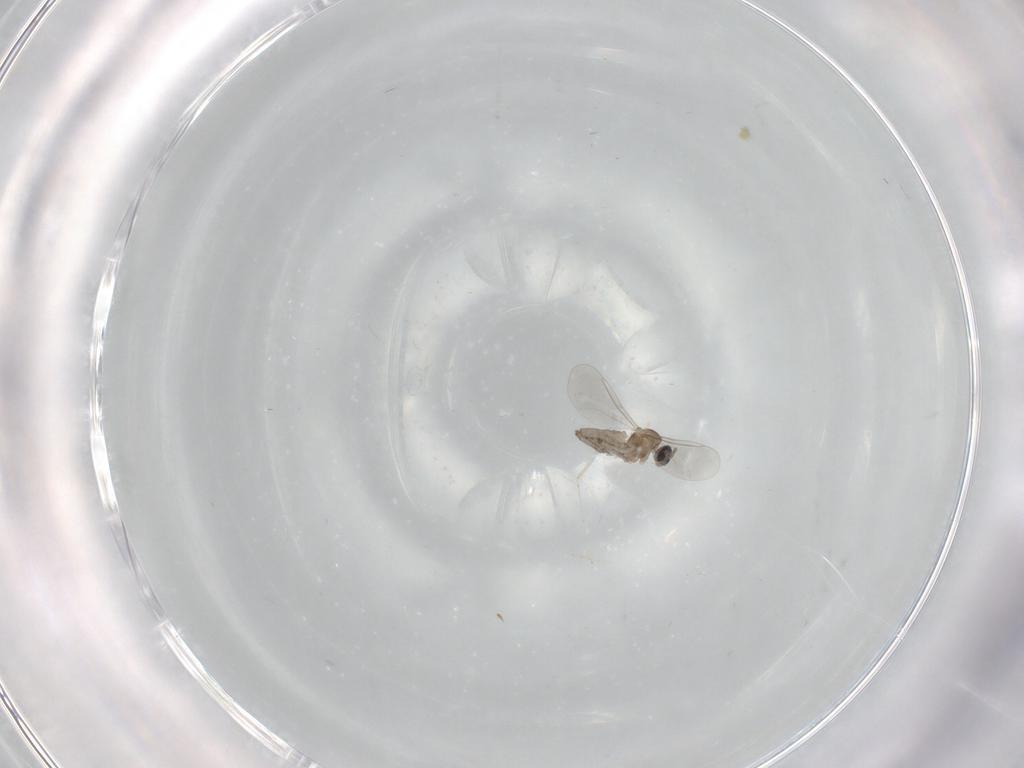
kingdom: Animalia
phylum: Arthropoda
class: Insecta
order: Diptera
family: Cecidomyiidae
